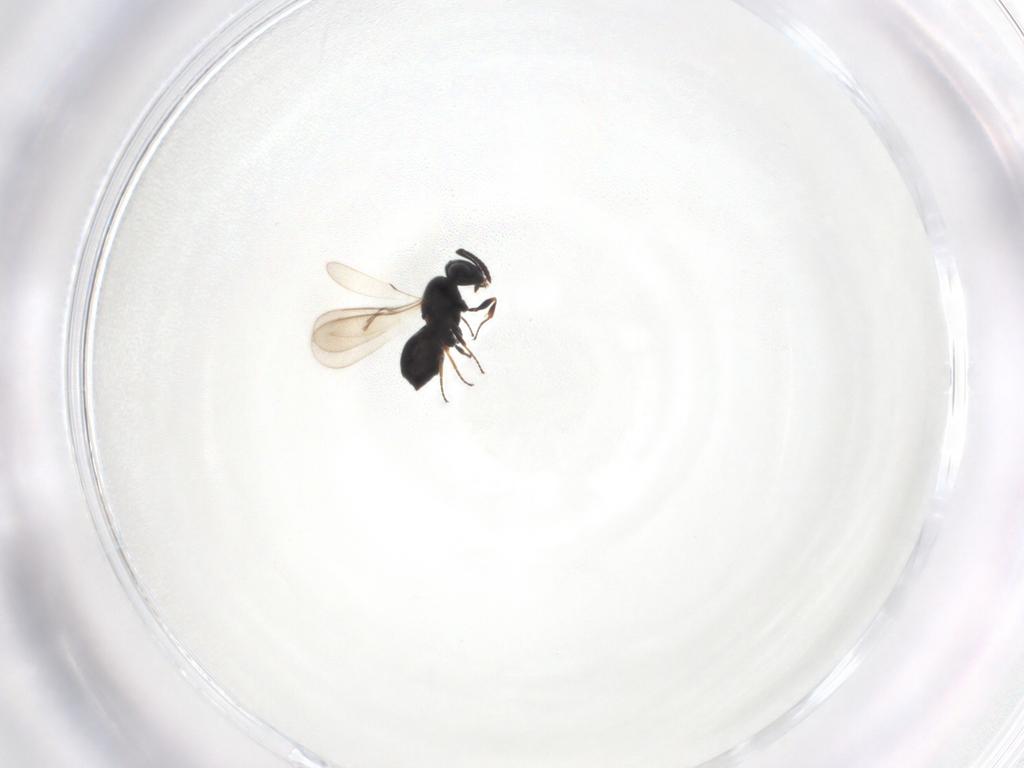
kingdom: Animalia
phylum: Arthropoda
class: Insecta
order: Hymenoptera
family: Scelionidae
